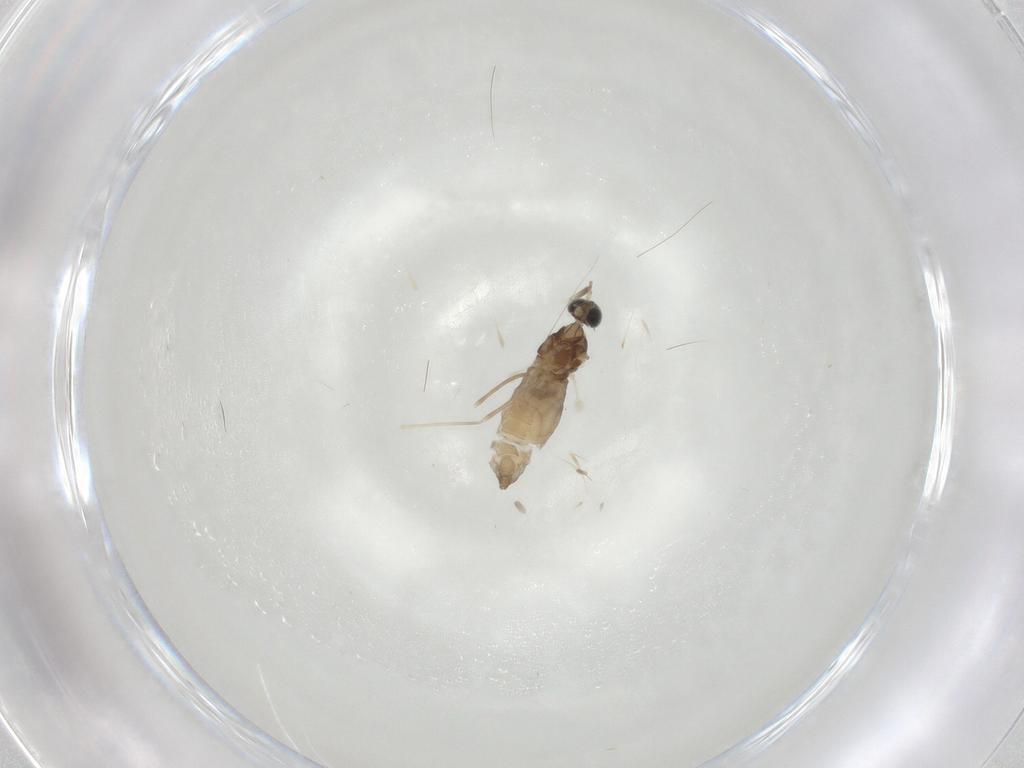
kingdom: Animalia
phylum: Arthropoda
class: Insecta
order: Diptera
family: Cecidomyiidae
